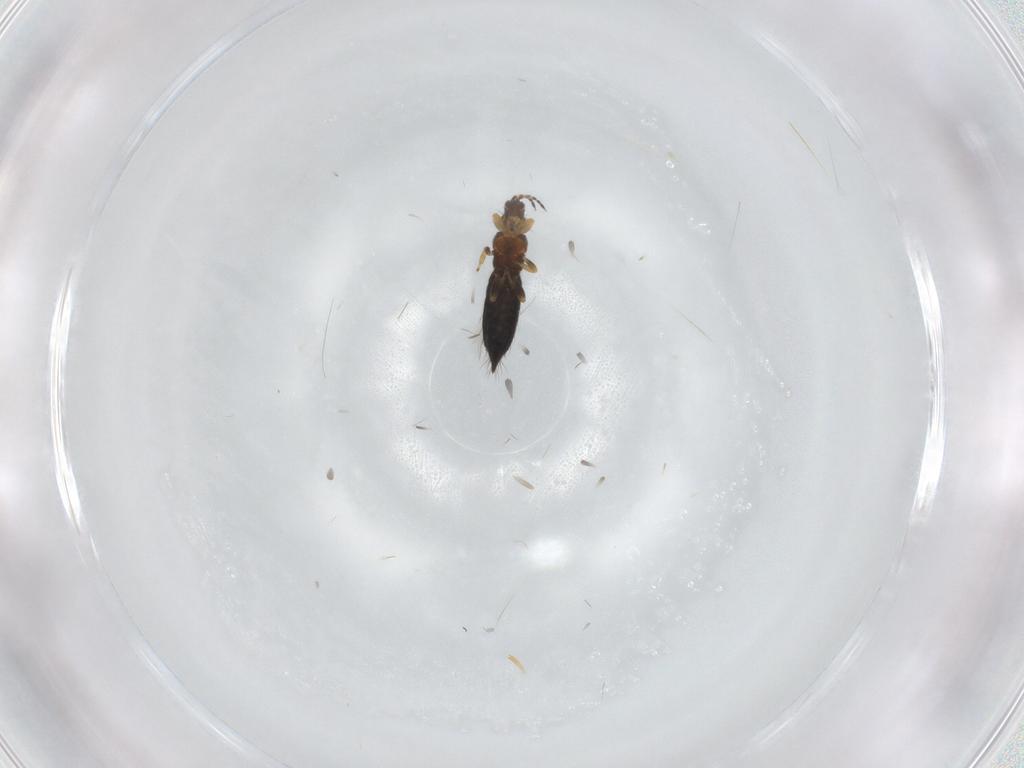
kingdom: Animalia
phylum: Arthropoda
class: Insecta
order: Thysanoptera
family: Thripidae
